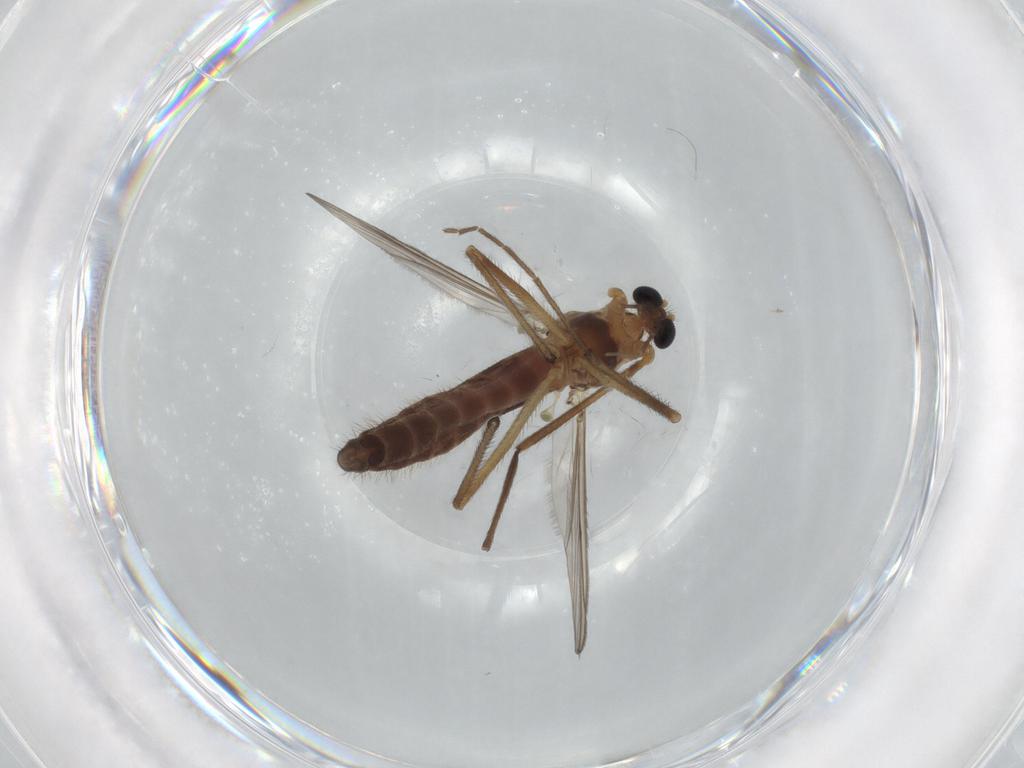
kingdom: Animalia
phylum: Arthropoda
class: Insecta
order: Diptera
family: Chironomidae
